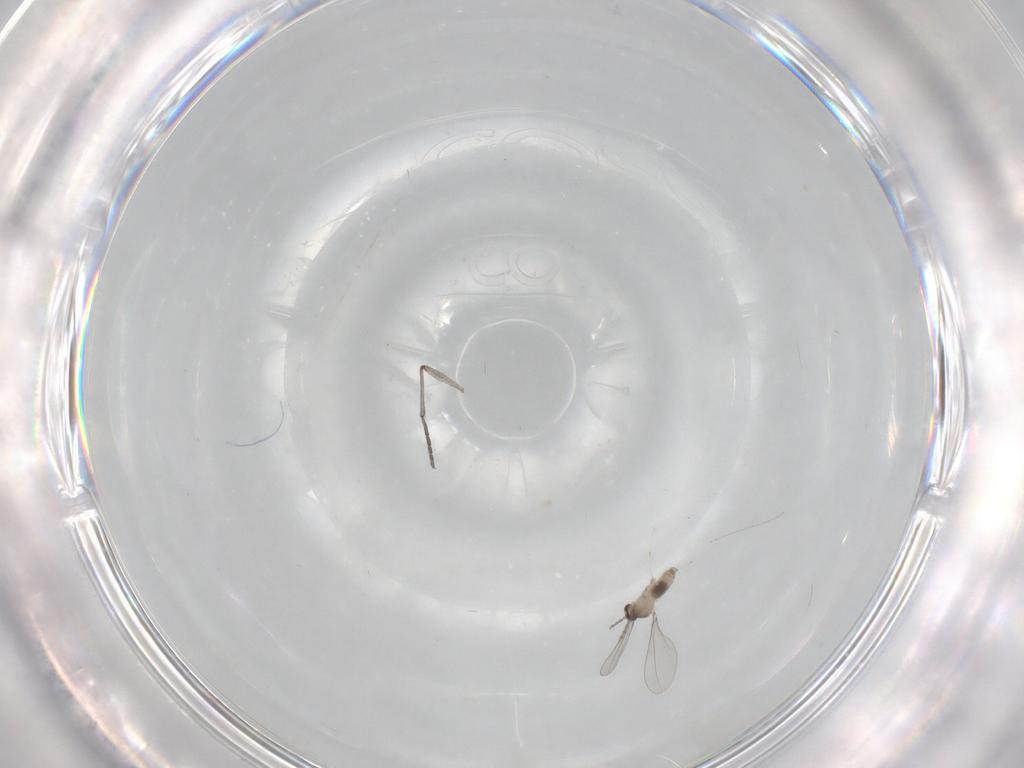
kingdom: Animalia
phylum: Arthropoda
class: Insecta
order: Diptera
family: Cecidomyiidae
